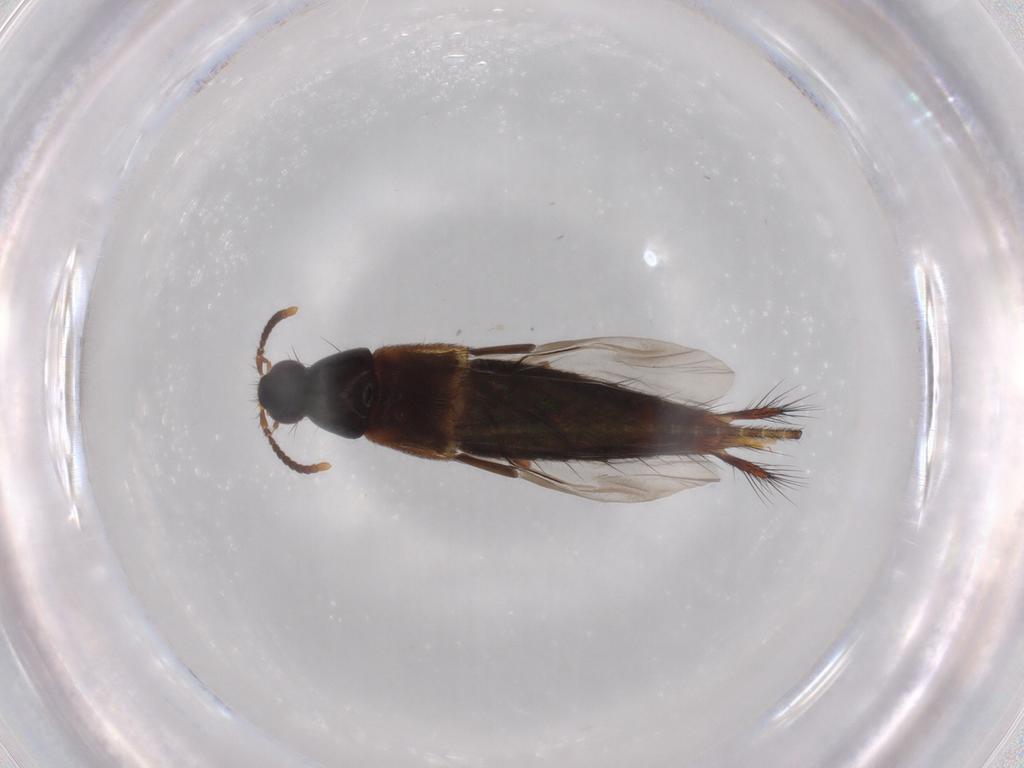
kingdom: Animalia
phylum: Arthropoda
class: Insecta
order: Coleoptera
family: Staphylinidae
